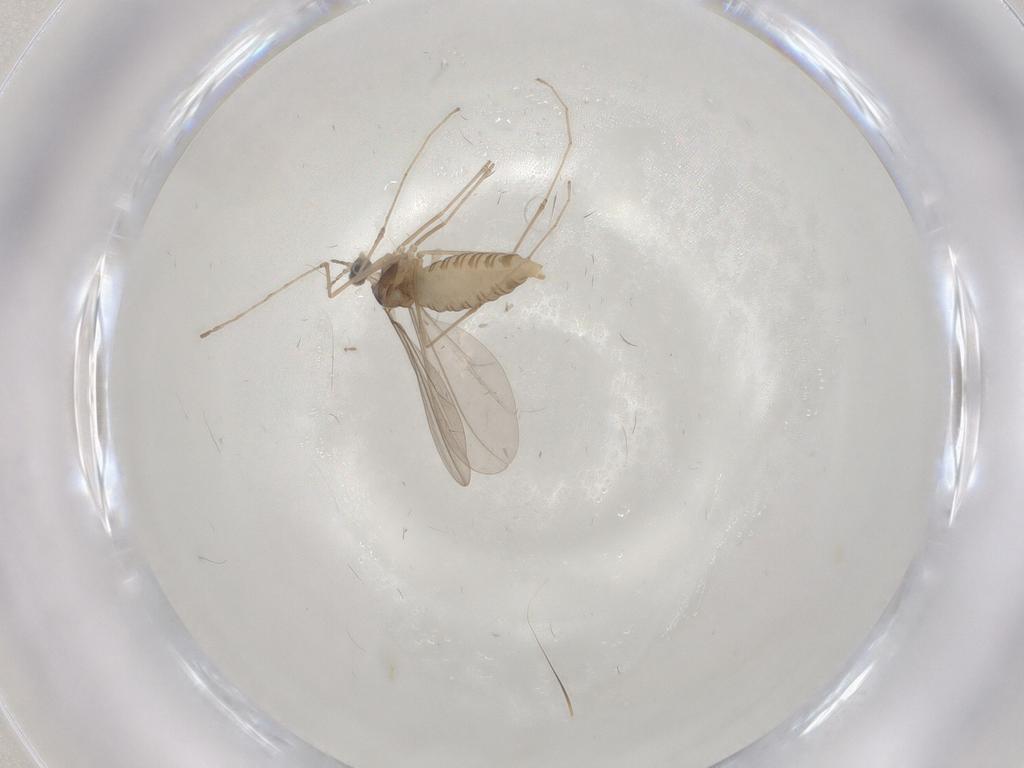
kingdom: Animalia
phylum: Arthropoda
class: Insecta
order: Diptera
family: Chironomidae
